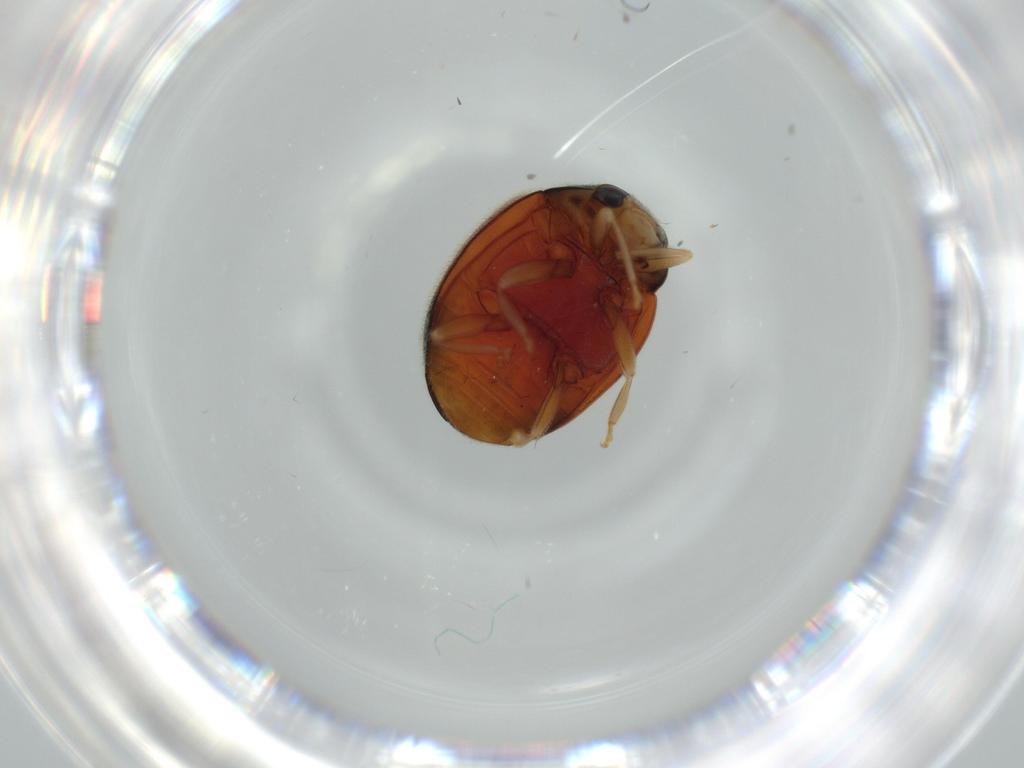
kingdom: Animalia
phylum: Arthropoda
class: Insecta
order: Coleoptera
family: Coccinellidae
